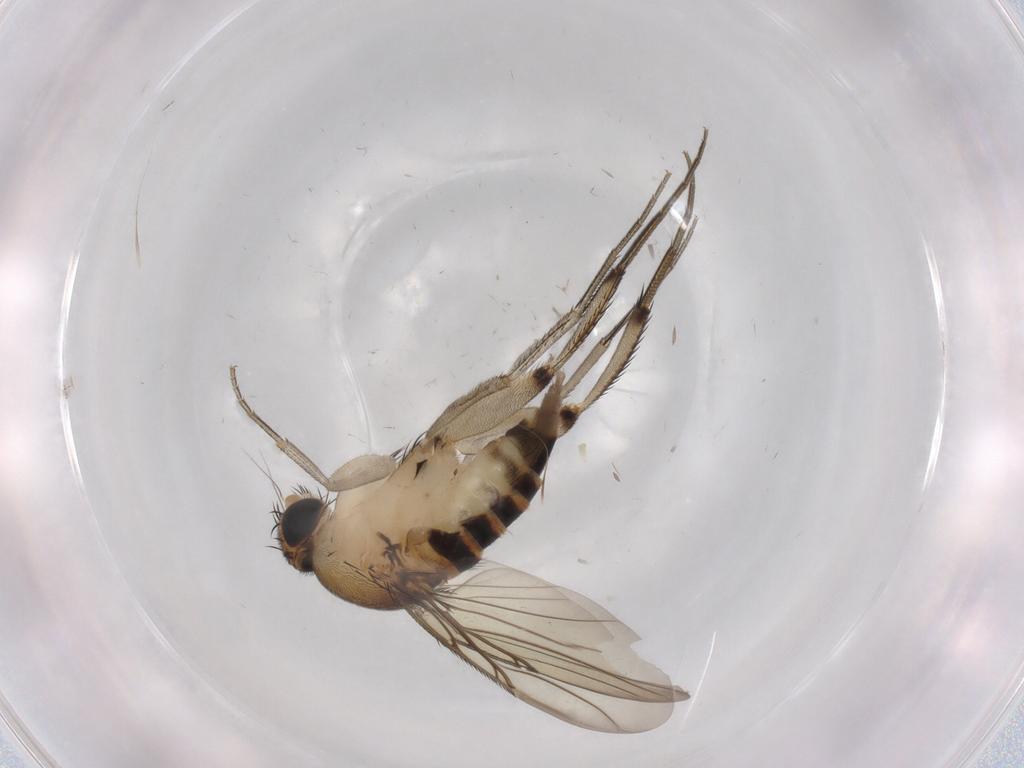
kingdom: Animalia
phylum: Arthropoda
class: Insecta
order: Diptera
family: Phoridae
